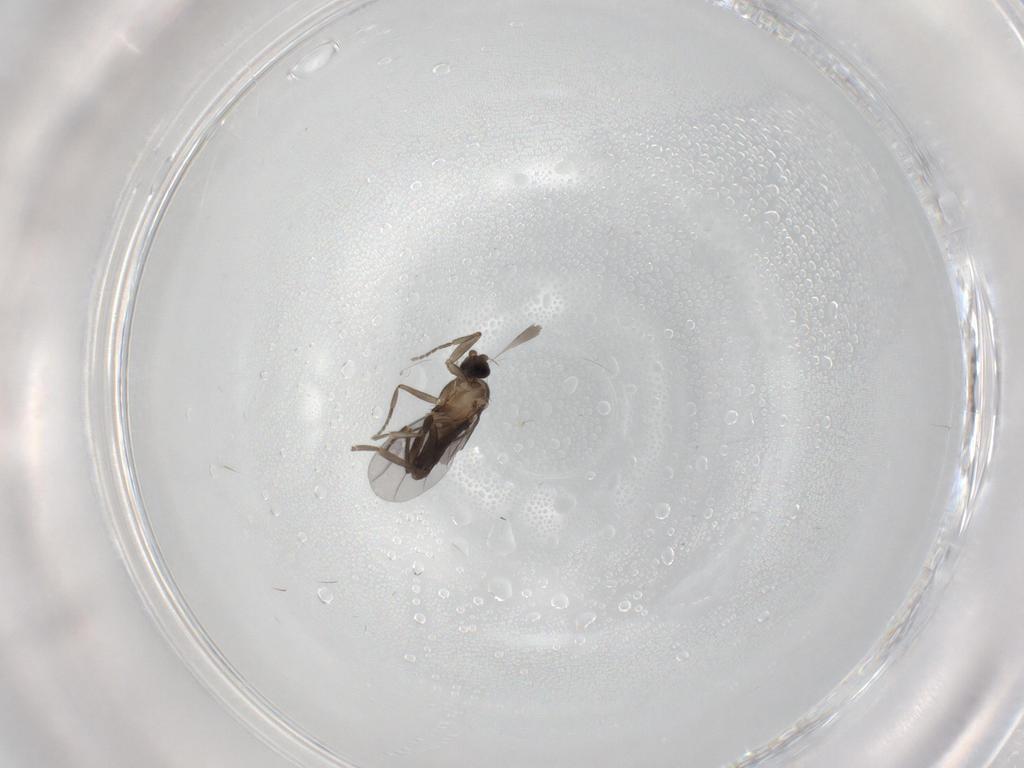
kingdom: Animalia
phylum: Arthropoda
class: Insecta
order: Diptera
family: Phoridae
